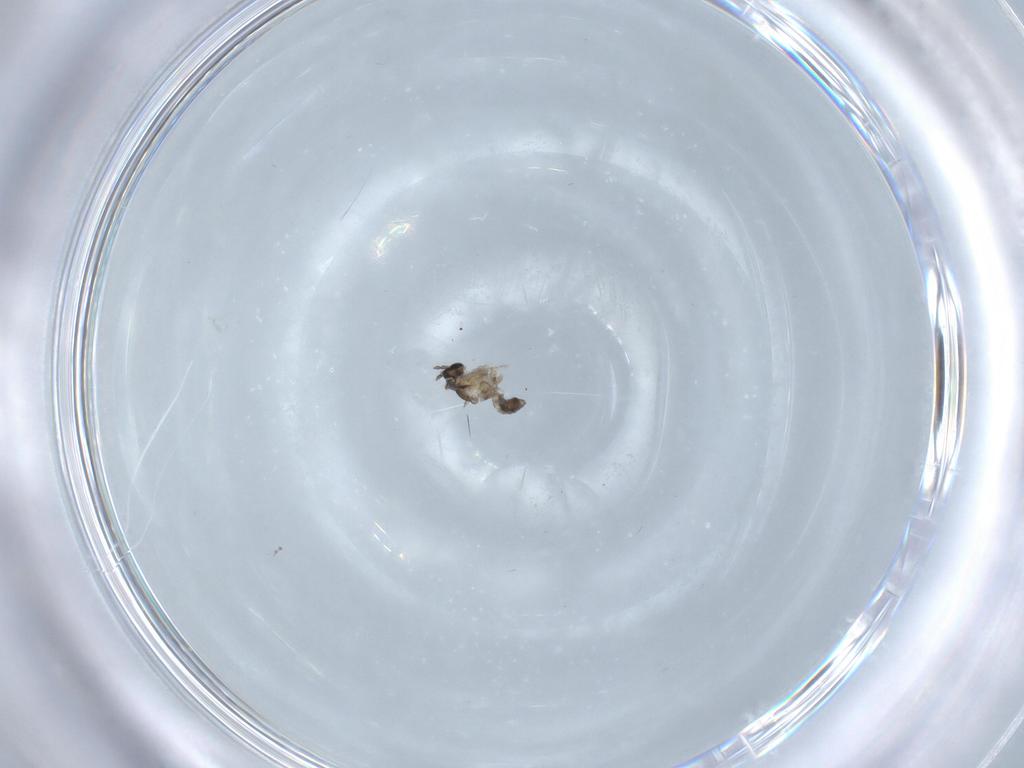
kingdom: Animalia
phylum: Arthropoda
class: Insecta
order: Diptera
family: Cecidomyiidae
